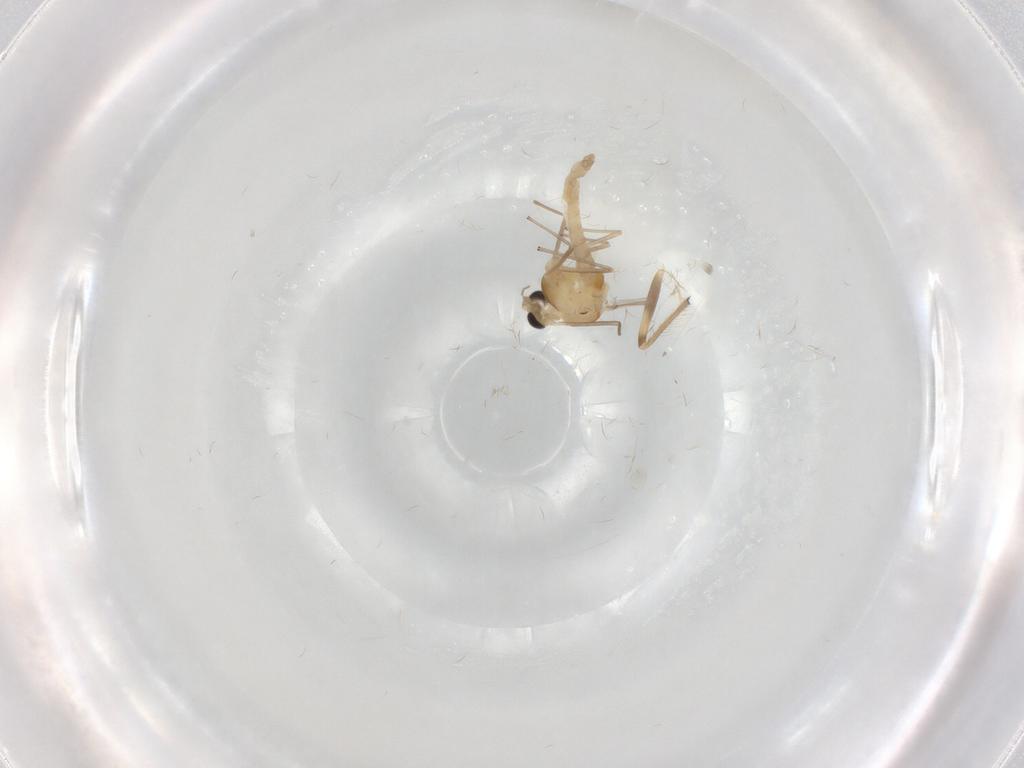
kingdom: Animalia
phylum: Arthropoda
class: Insecta
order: Diptera
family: Chironomidae
